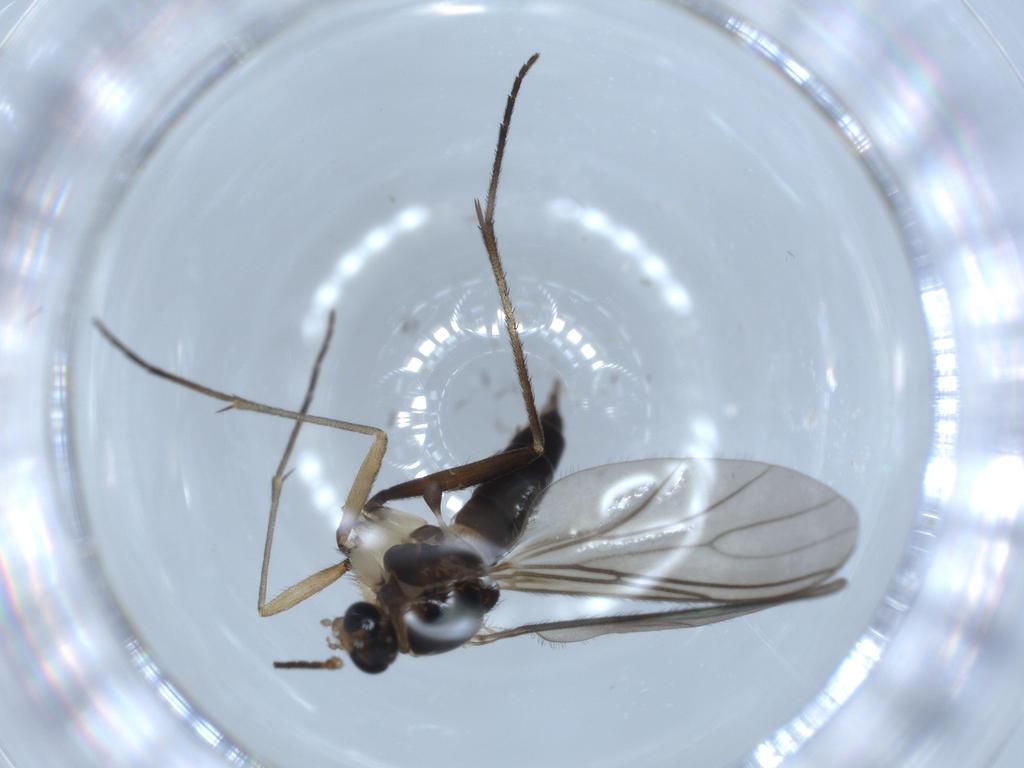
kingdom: Animalia
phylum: Arthropoda
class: Insecta
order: Diptera
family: Sciaridae
